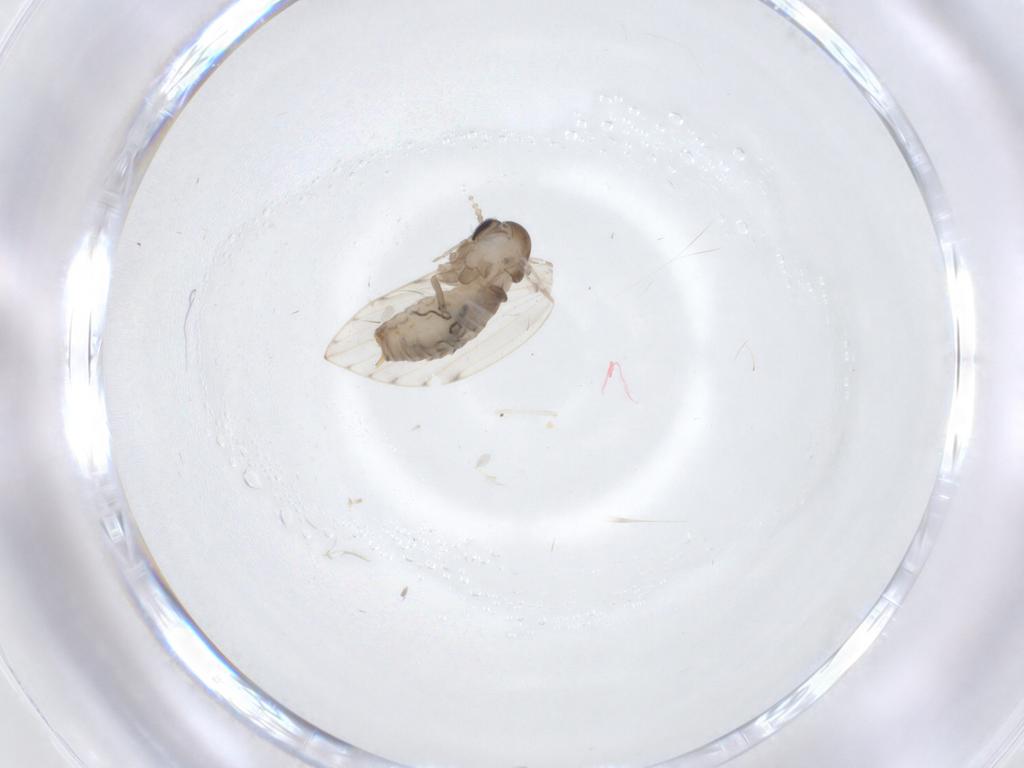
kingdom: Animalia
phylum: Arthropoda
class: Insecta
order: Diptera
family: Psychodidae
